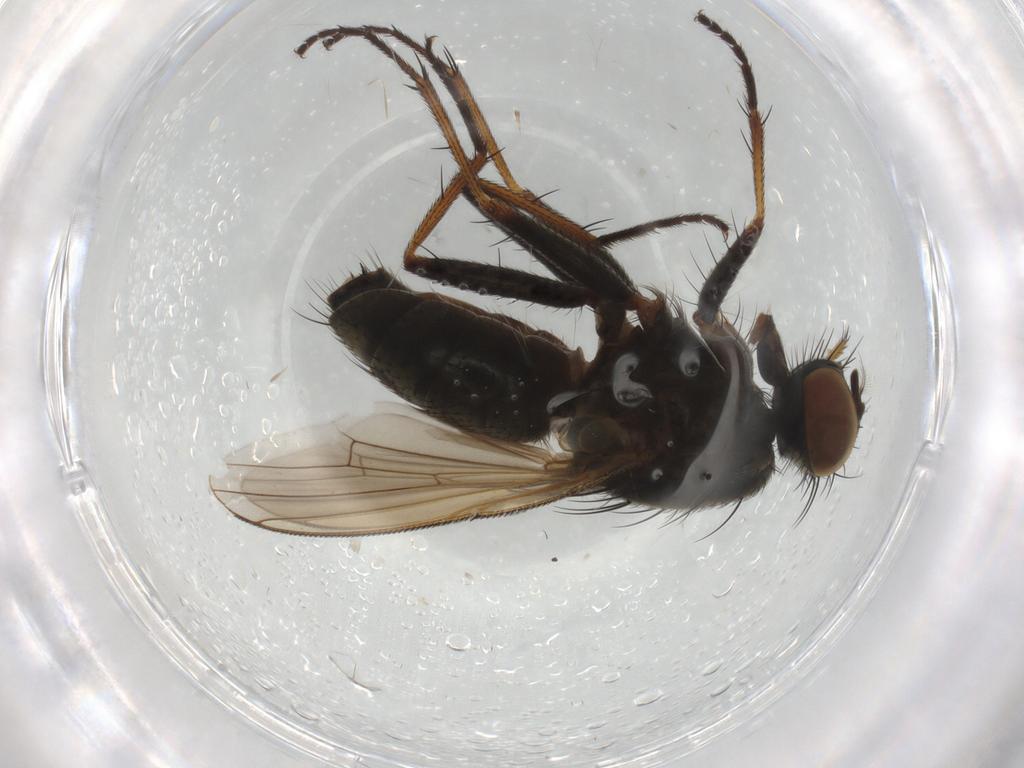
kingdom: Animalia
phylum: Arthropoda
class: Insecta
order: Diptera
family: Muscidae
